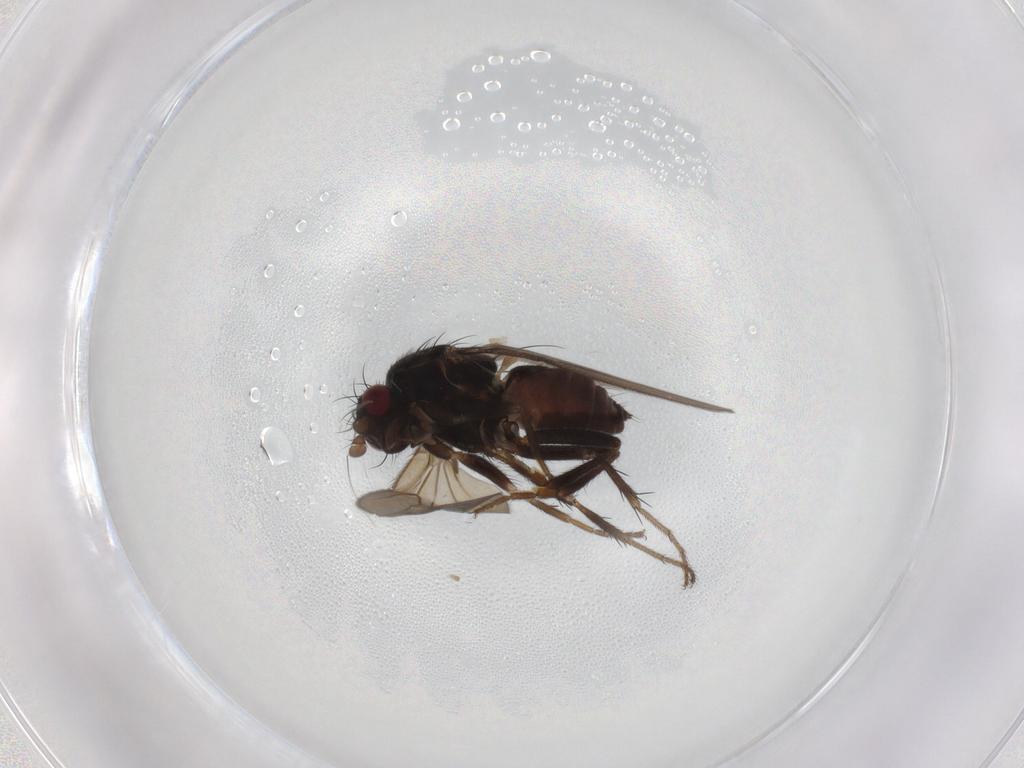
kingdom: Animalia
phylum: Arthropoda
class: Insecta
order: Diptera
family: Sphaeroceridae
